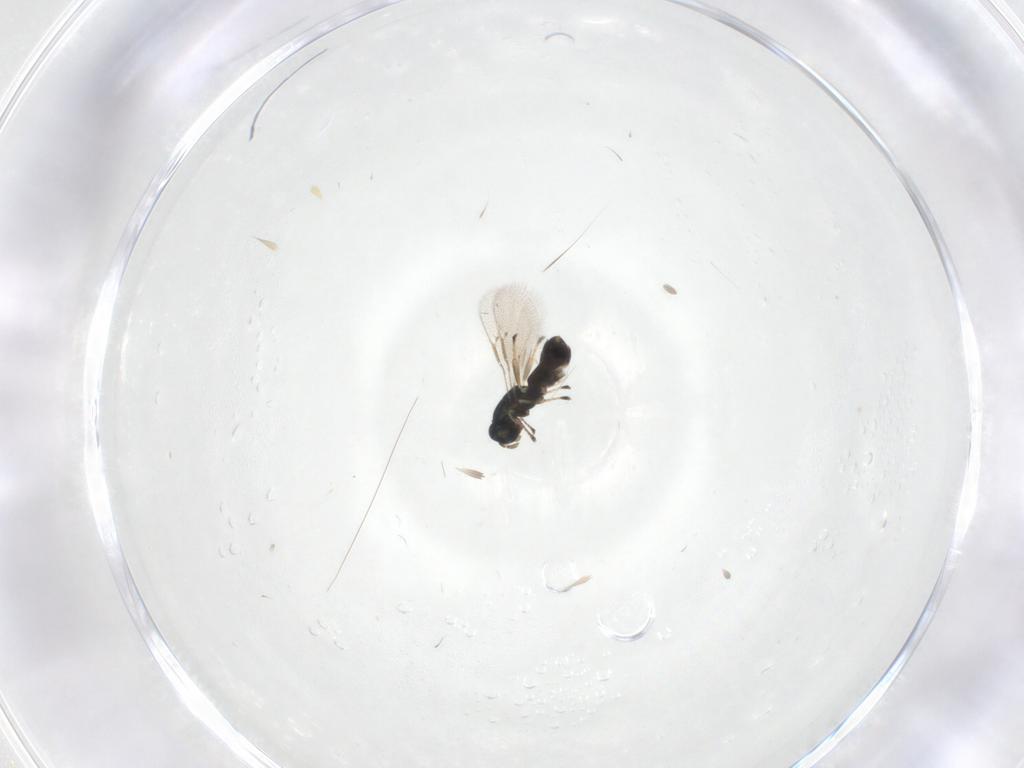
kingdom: Animalia
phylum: Arthropoda
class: Insecta
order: Hymenoptera
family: Eulophidae
